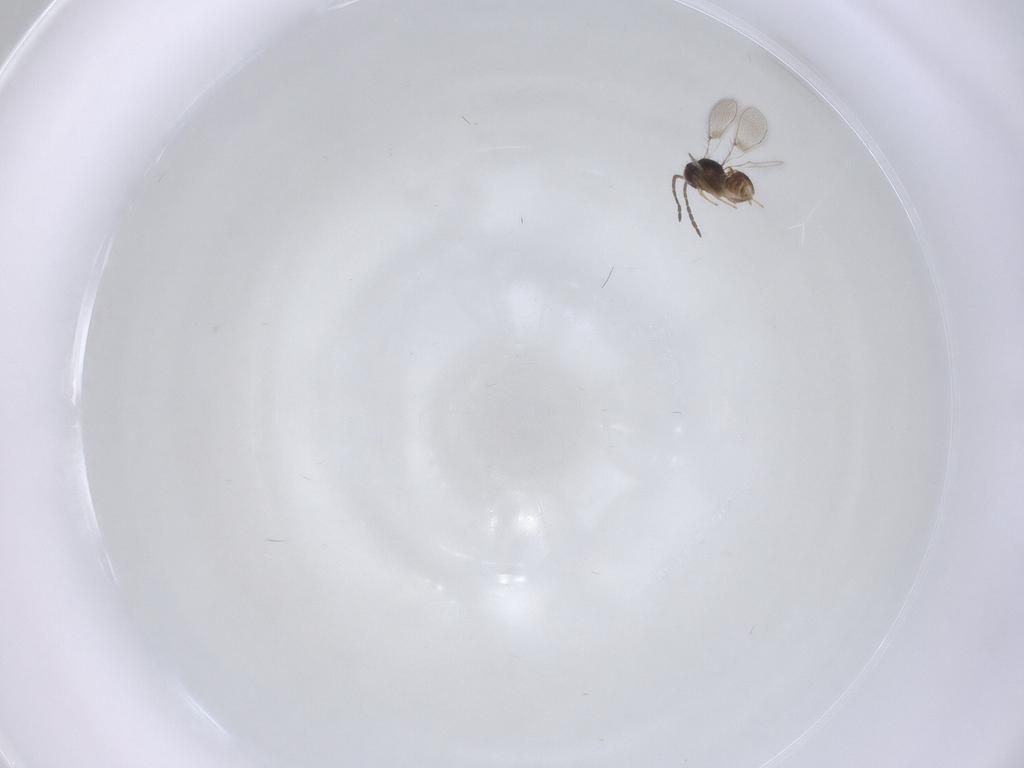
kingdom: Animalia
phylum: Arthropoda
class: Insecta
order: Hymenoptera
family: Mymaridae
